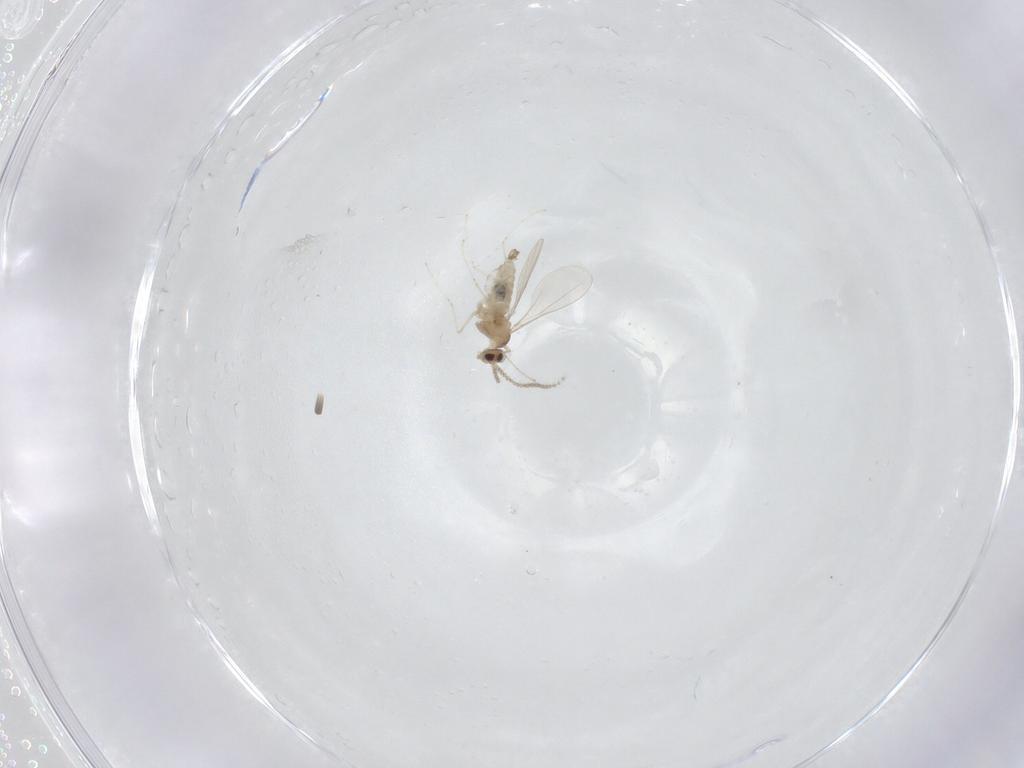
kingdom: Animalia
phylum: Arthropoda
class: Insecta
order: Diptera
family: Cecidomyiidae
